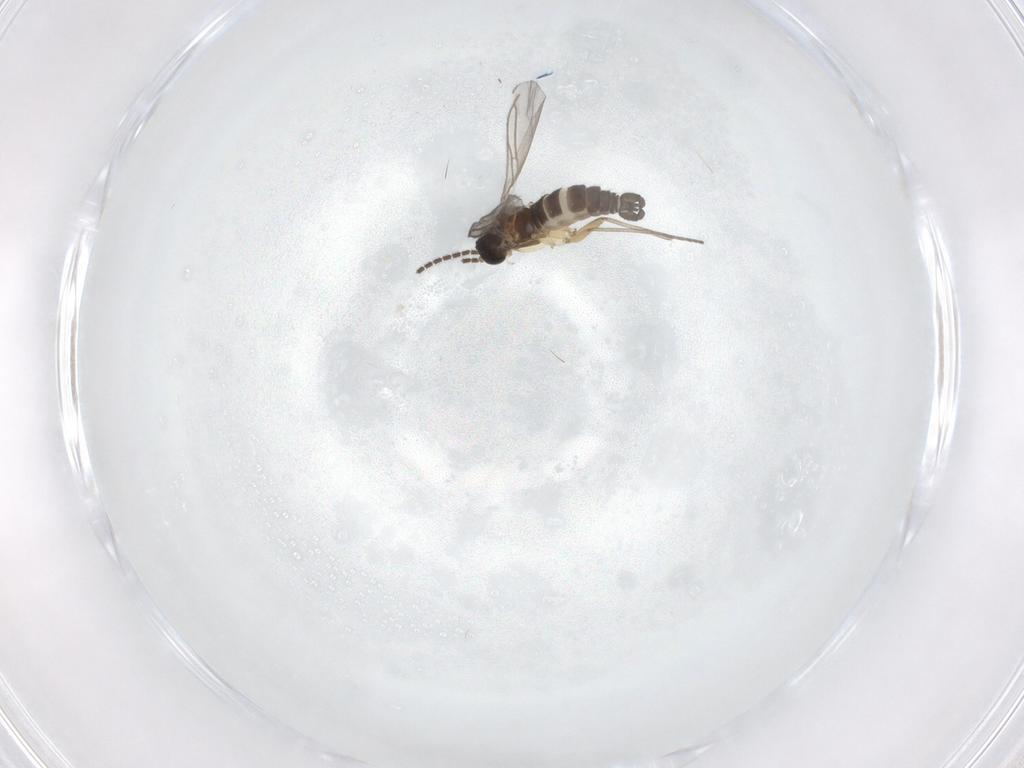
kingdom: Animalia
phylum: Arthropoda
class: Insecta
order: Diptera
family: Sarcophagidae
